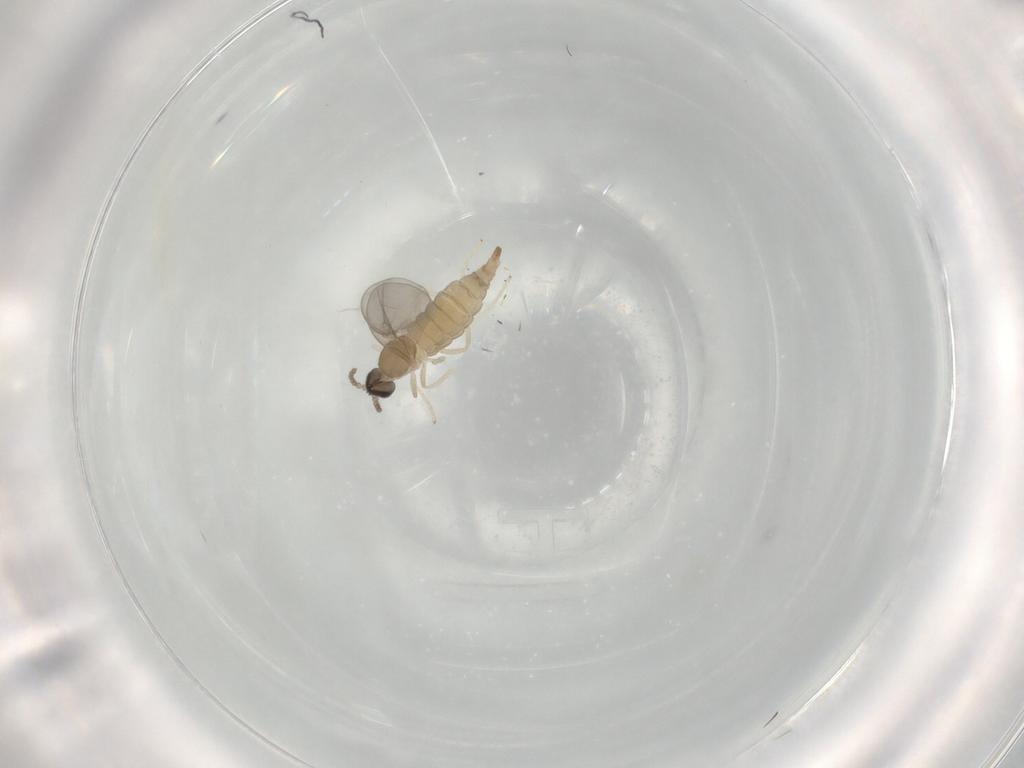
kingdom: Animalia
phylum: Arthropoda
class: Insecta
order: Diptera
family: Cecidomyiidae
